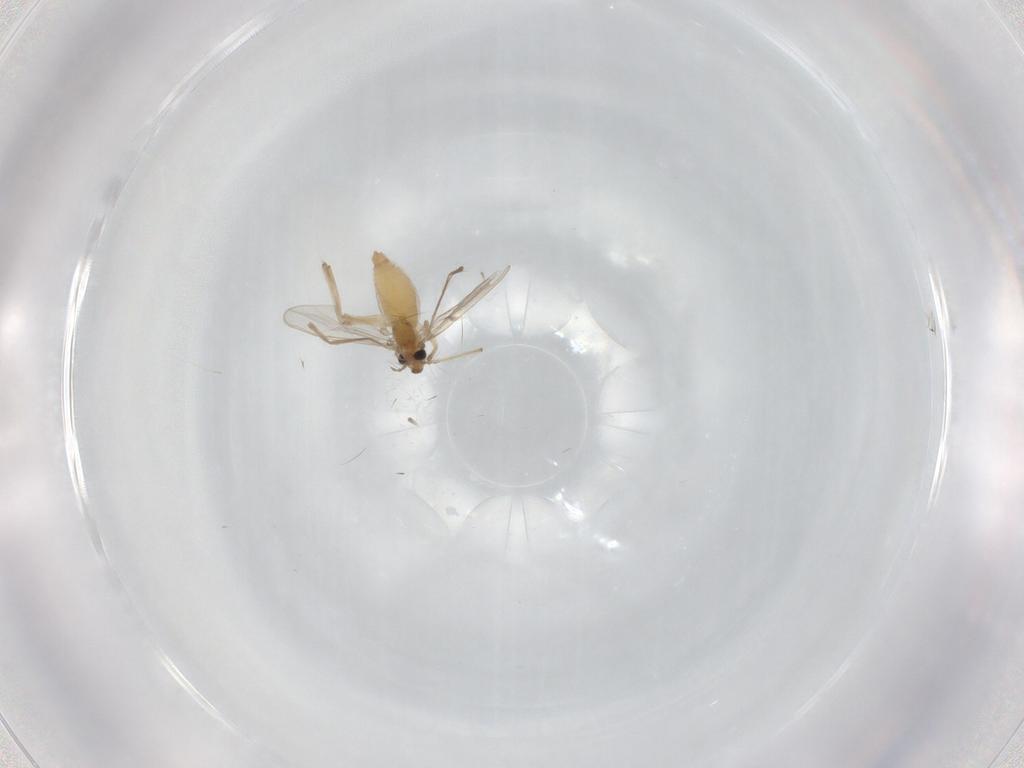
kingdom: Animalia
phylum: Arthropoda
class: Insecta
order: Diptera
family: Chironomidae
